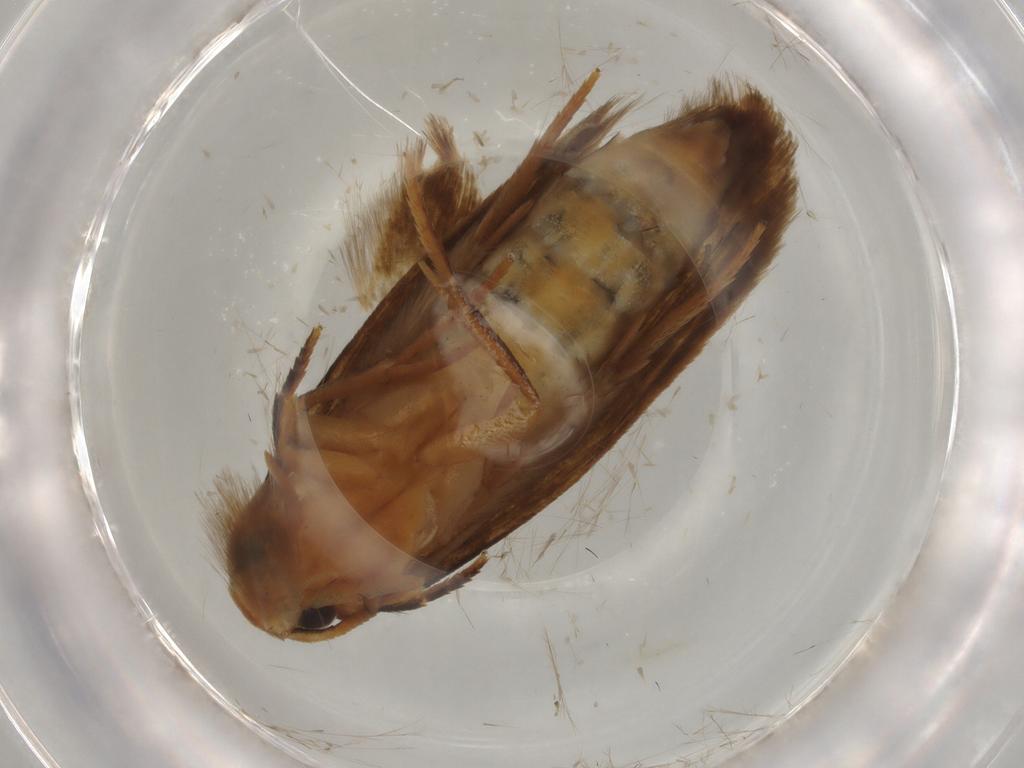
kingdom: Animalia
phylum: Arthropoda
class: Insecta
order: Lepidoptera
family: Tineidae
